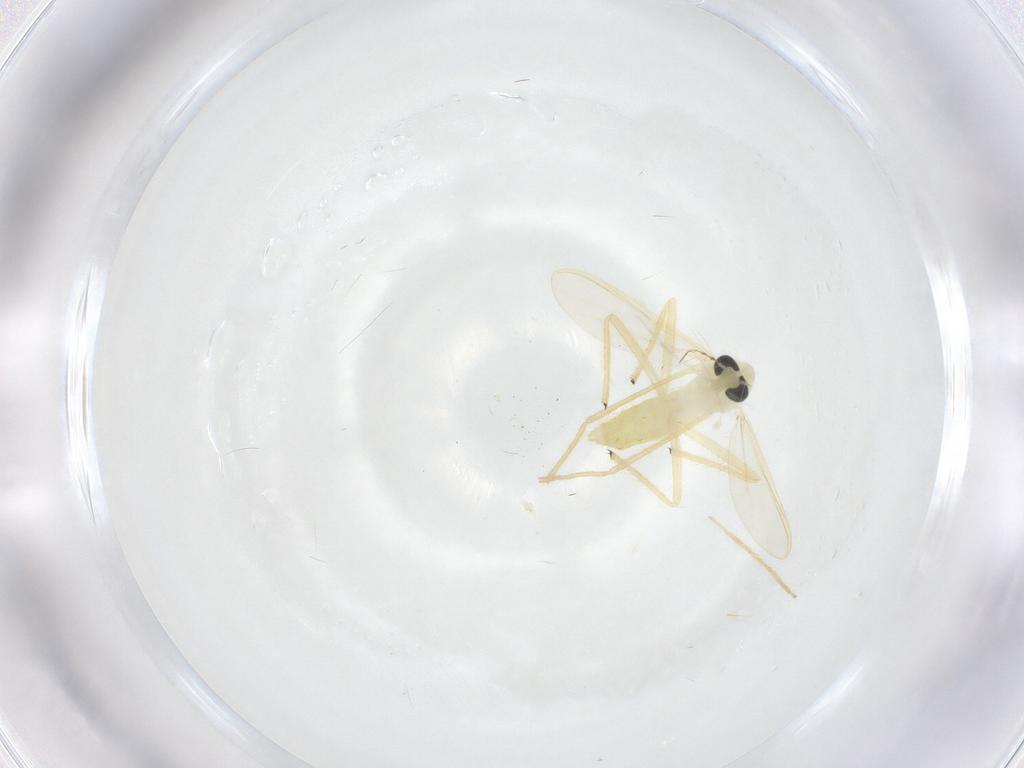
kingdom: Animalia
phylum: Arthropoda
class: Insecta
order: Diptera
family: Chironomidae
